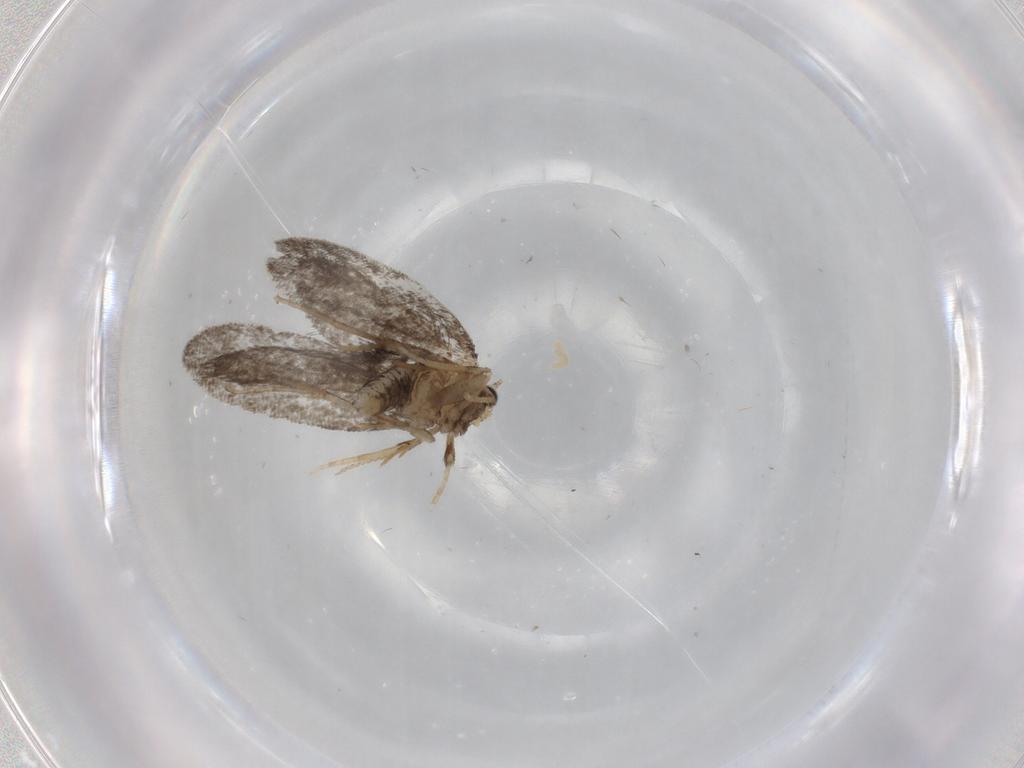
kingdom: Animalia
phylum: Arthropoda
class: Insecta
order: Lepidoptera
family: Psychidae
